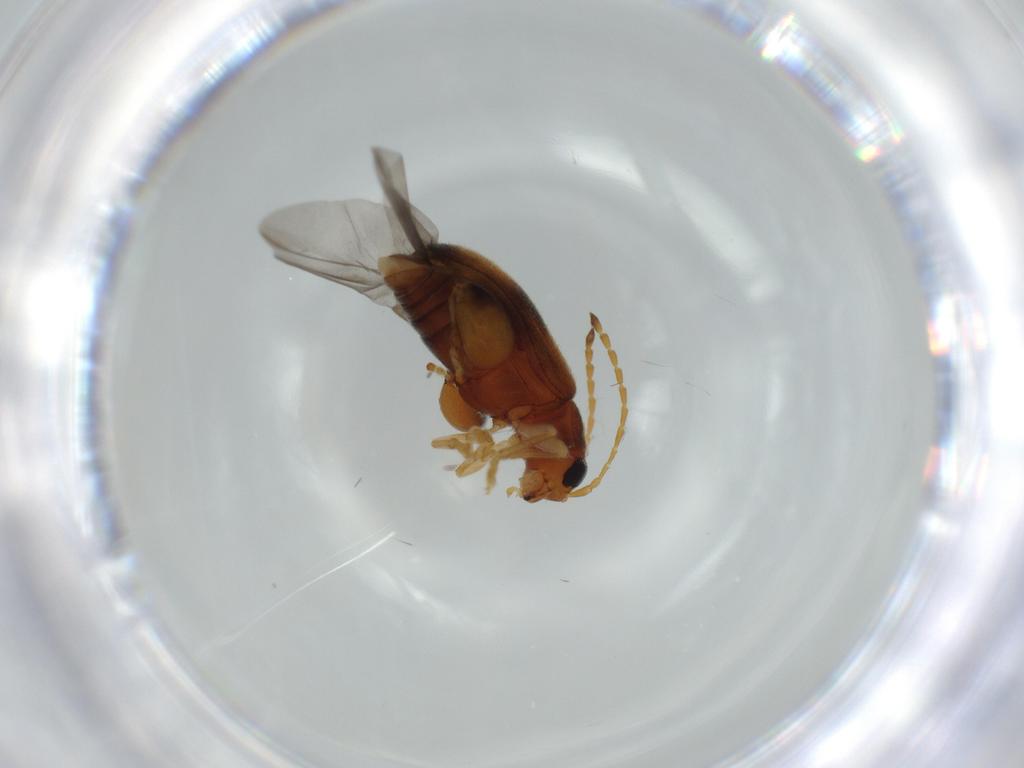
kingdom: Animalia
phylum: Arthropoda
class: Insecta
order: Coleoptera
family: Chrysomelidae
